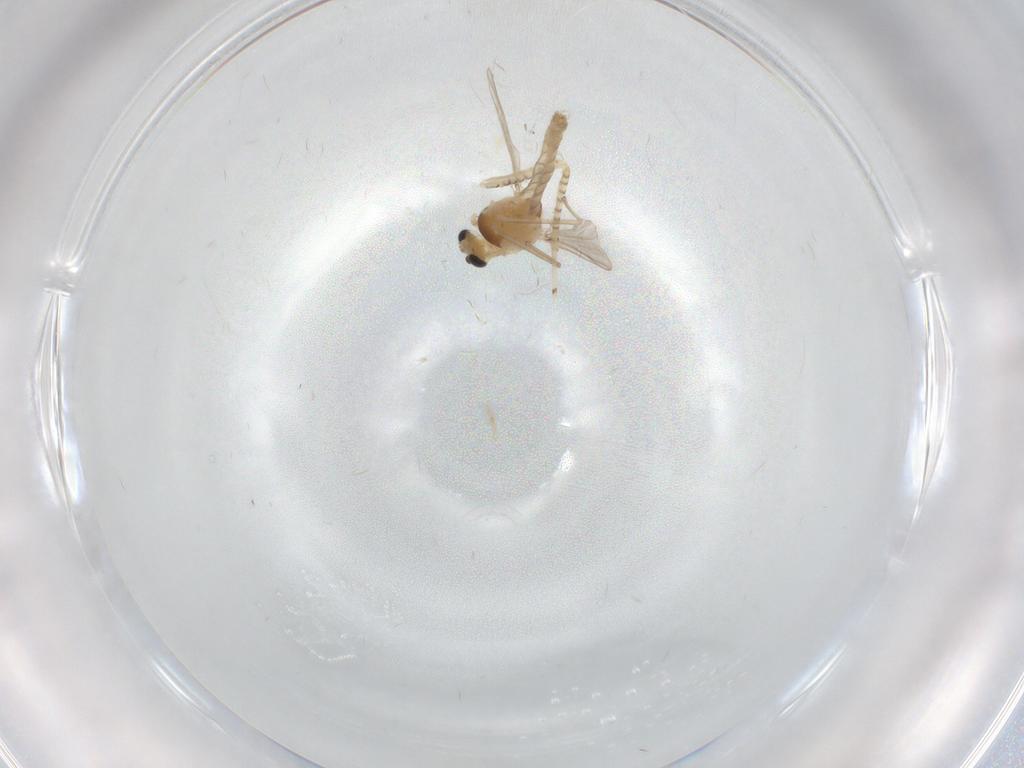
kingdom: Animalia
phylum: Arthropoda
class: Insecta
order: Diptera
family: Chaoboridae
